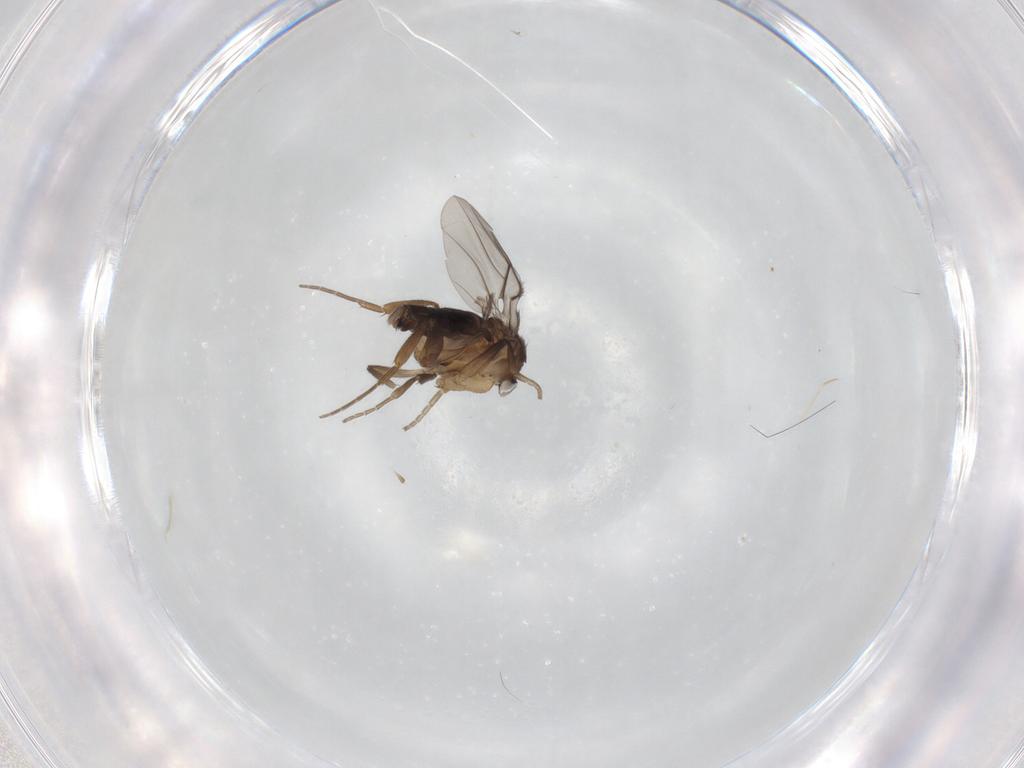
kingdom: Animalia
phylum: Arthropoda
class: Insecta
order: Diptera
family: Phoridae
